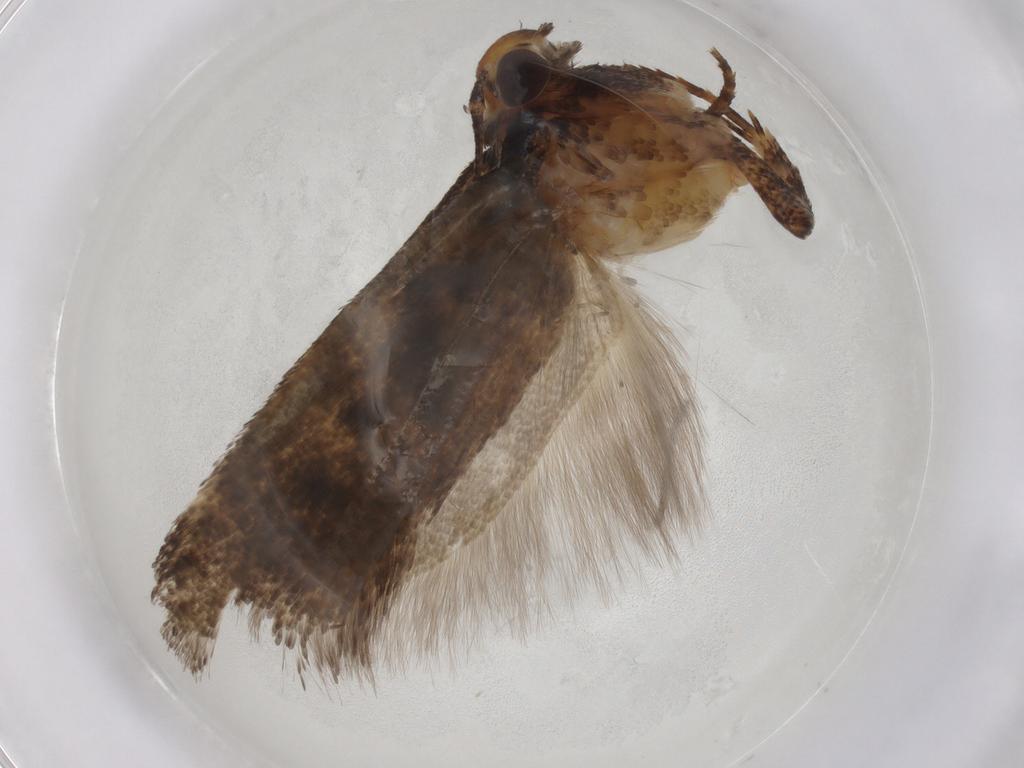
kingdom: Animalia
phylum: Arthropoda
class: Insecta
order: Lepidoptera
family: Gelechiidae
